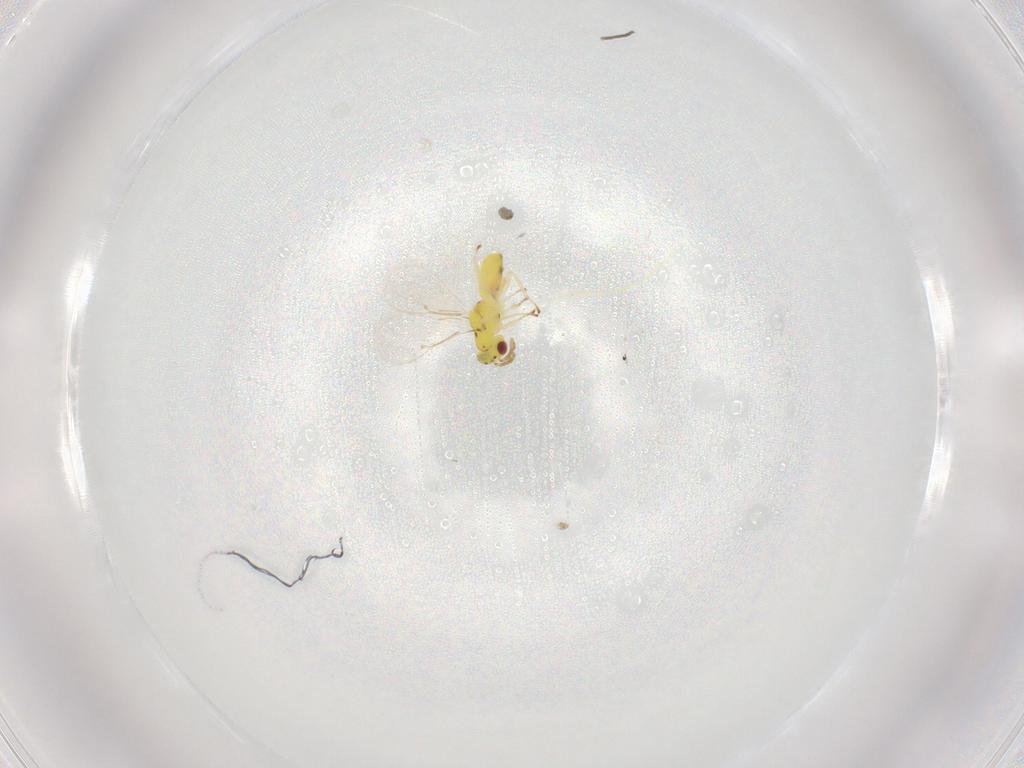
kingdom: Animalia
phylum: Arthropoda
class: Insecta
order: Hymenoptera
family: Eulophidae
